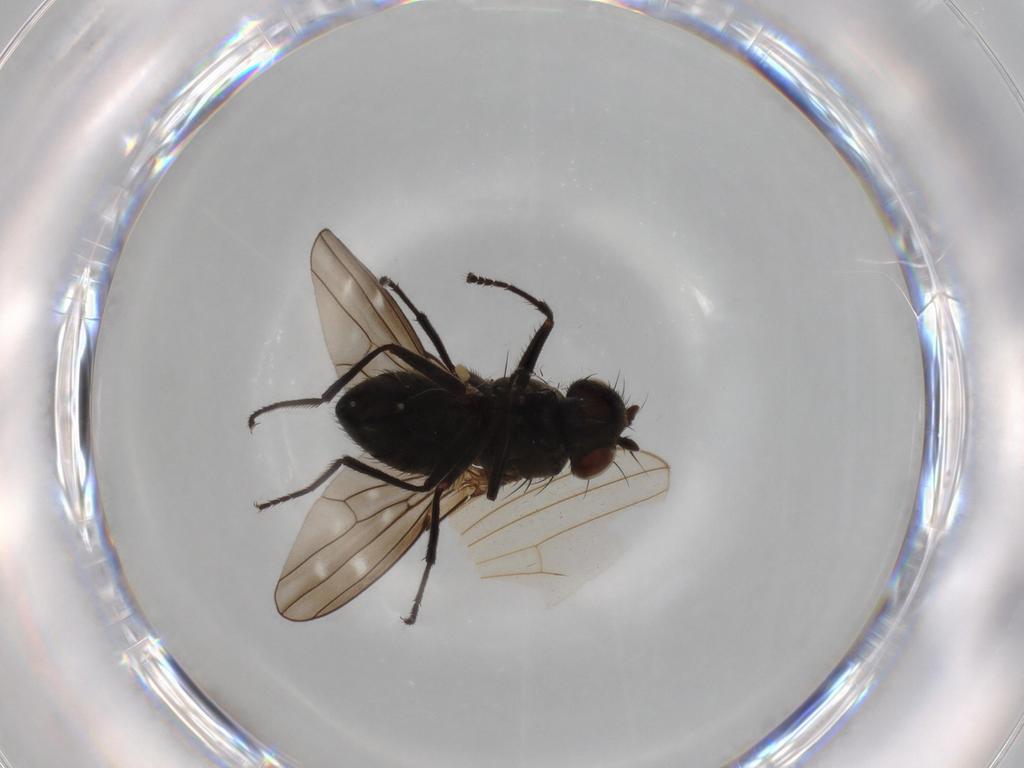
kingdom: Animalia
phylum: Arthropoda
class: Insecta
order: Diptera
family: Ephydridae
